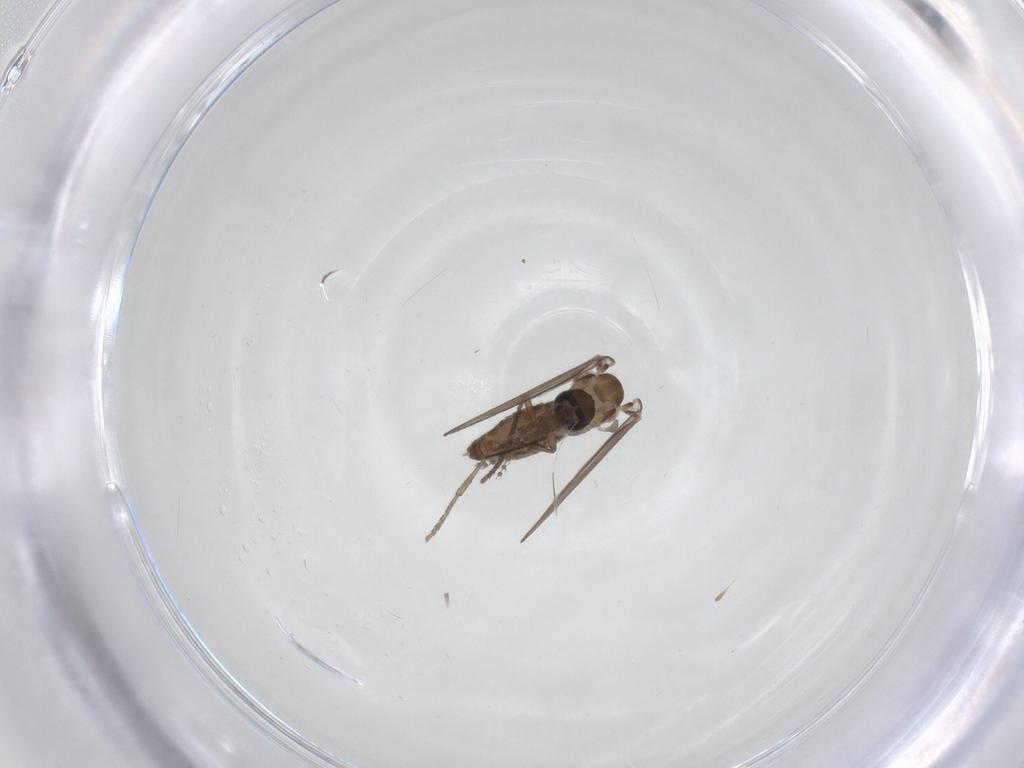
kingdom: Animalia
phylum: Arthropoda
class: Insecta
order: Diptera
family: Psychodidae
